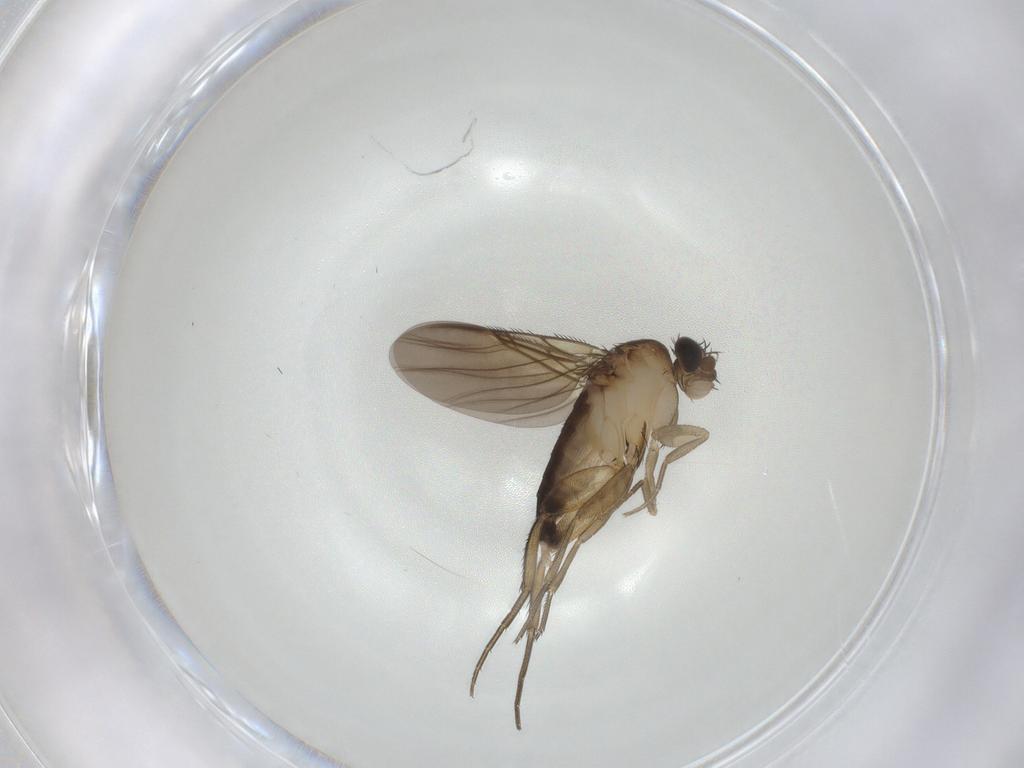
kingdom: Animalia
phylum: Arthropoda
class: Insecta
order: Diptera
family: Phoridae
